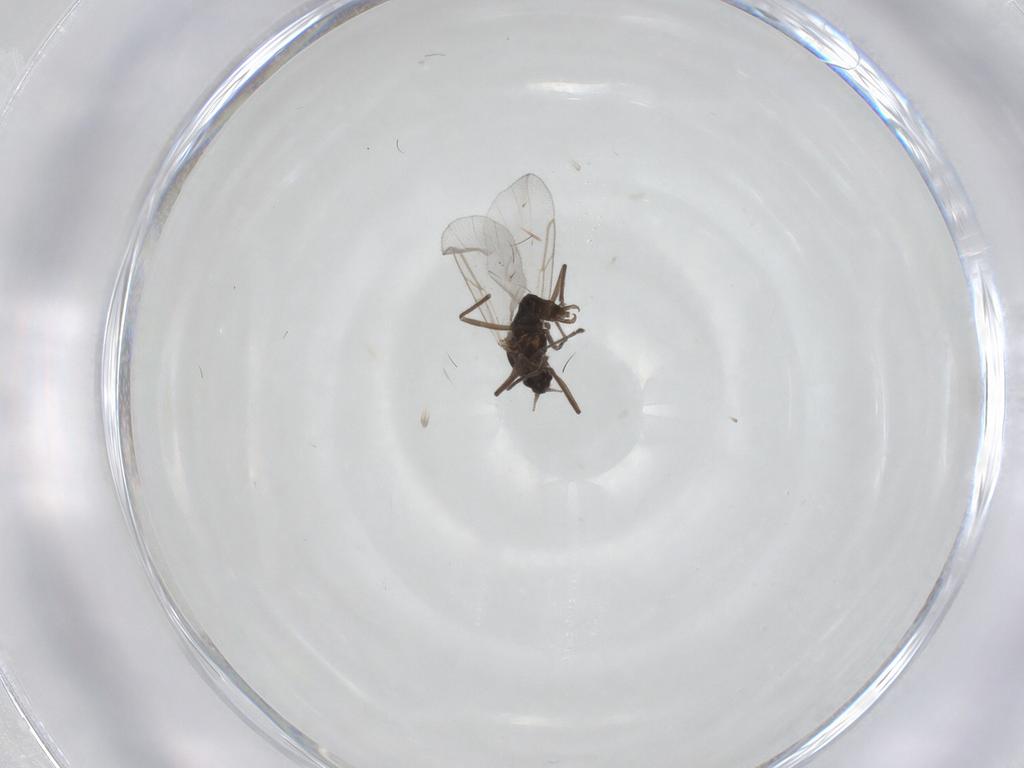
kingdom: Animalia
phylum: Arthropoda
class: Insecta
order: Diptera
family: Cecidomyiidae
